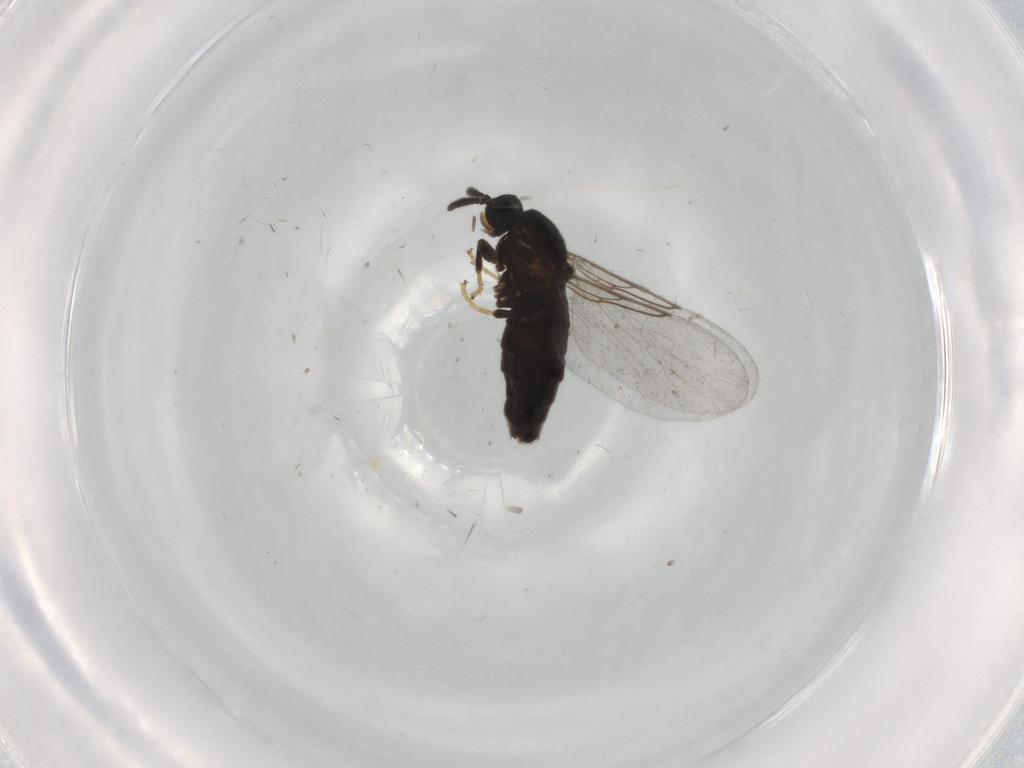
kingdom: Animalia
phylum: Arthropoda
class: Insecta
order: Diptera
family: Scatopsidae
